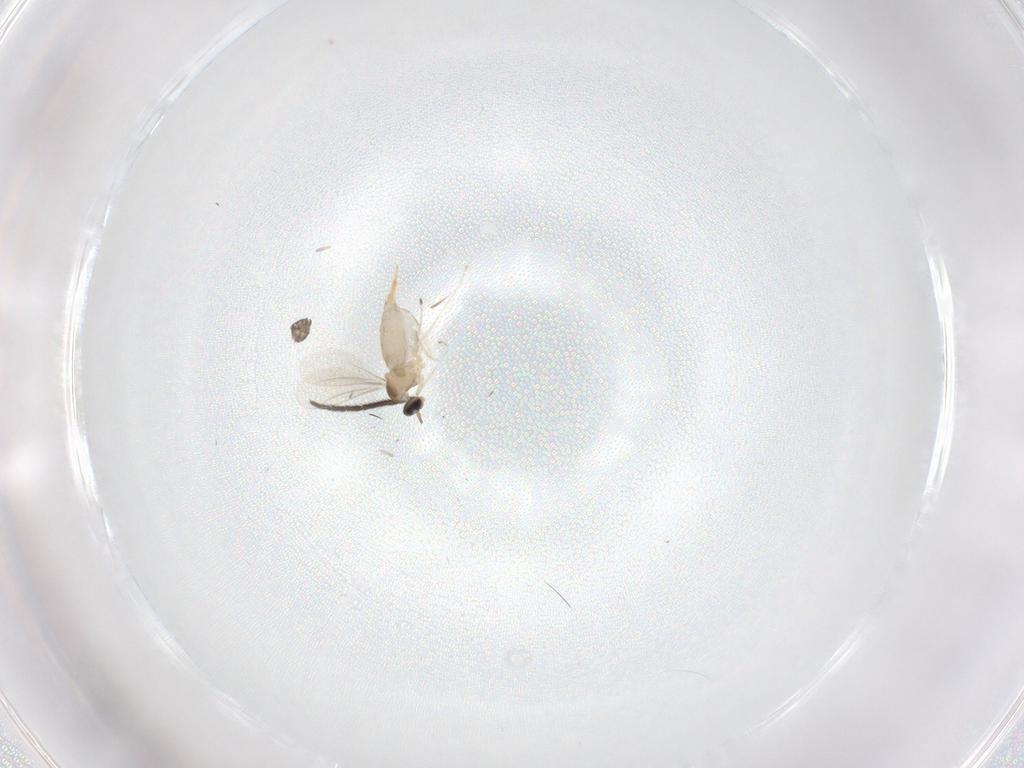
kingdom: Animalia
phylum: Arthropoda
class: Insecta
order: Diptera
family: Cecidomyiidae
